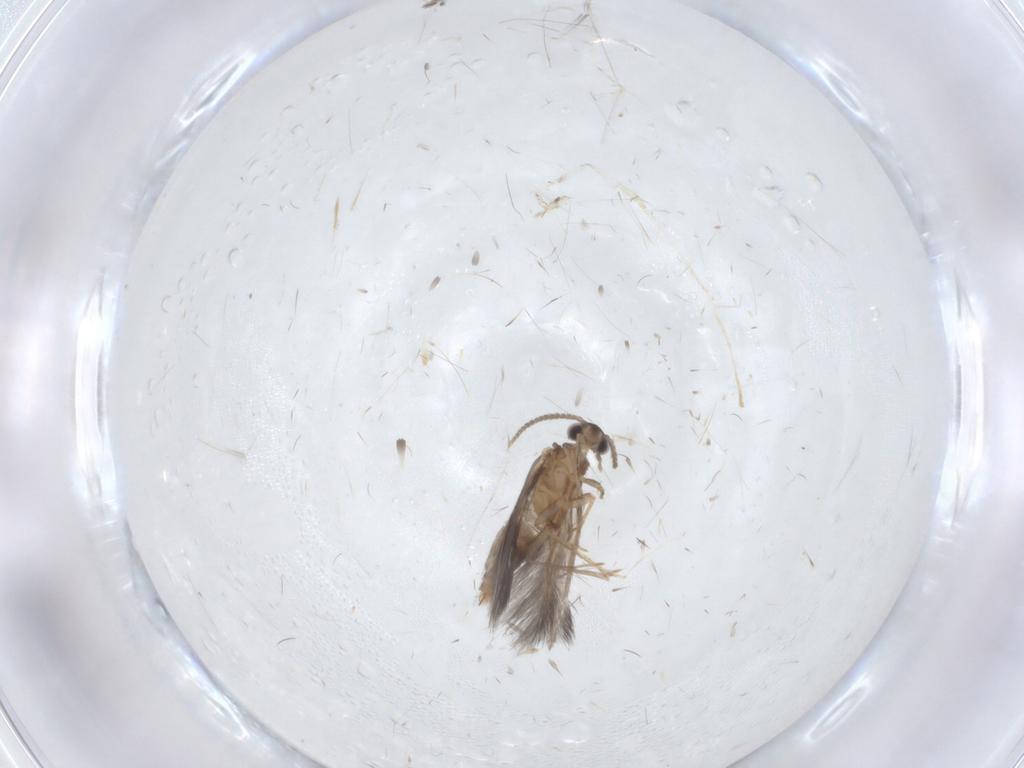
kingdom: Animalia
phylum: Arthropoda
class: Insecta
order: Trichoptera
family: Hydroptilidae
